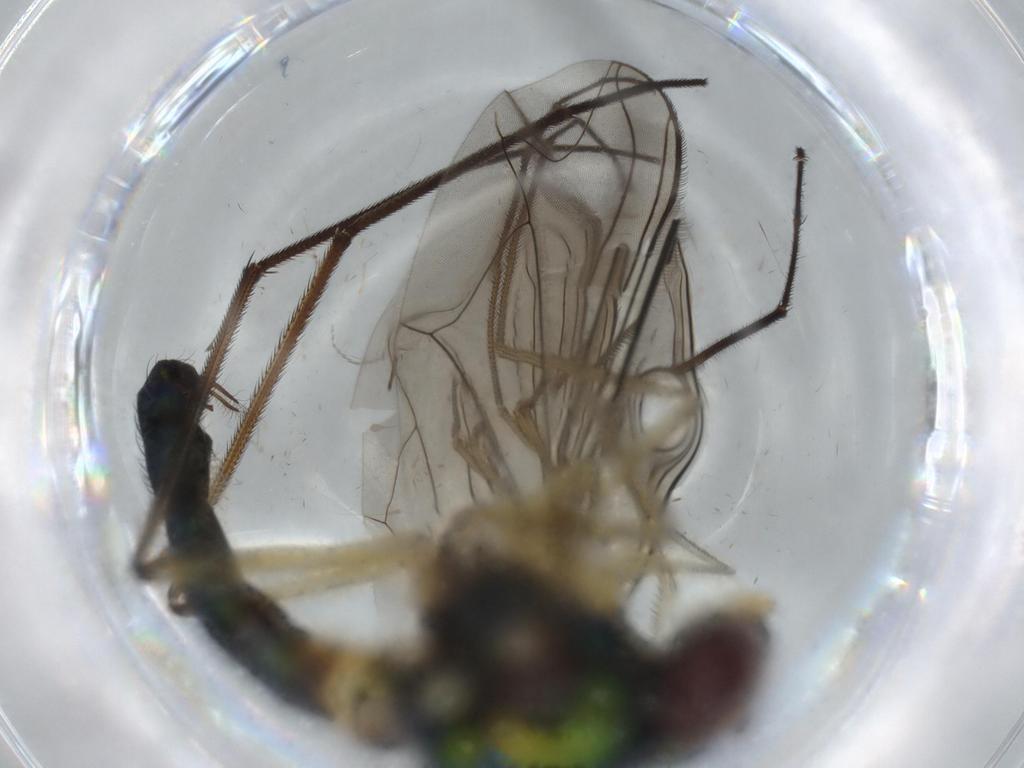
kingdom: Animalia
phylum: Arthropoda
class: Insecta
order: Diptera
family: Dolichopodidae
